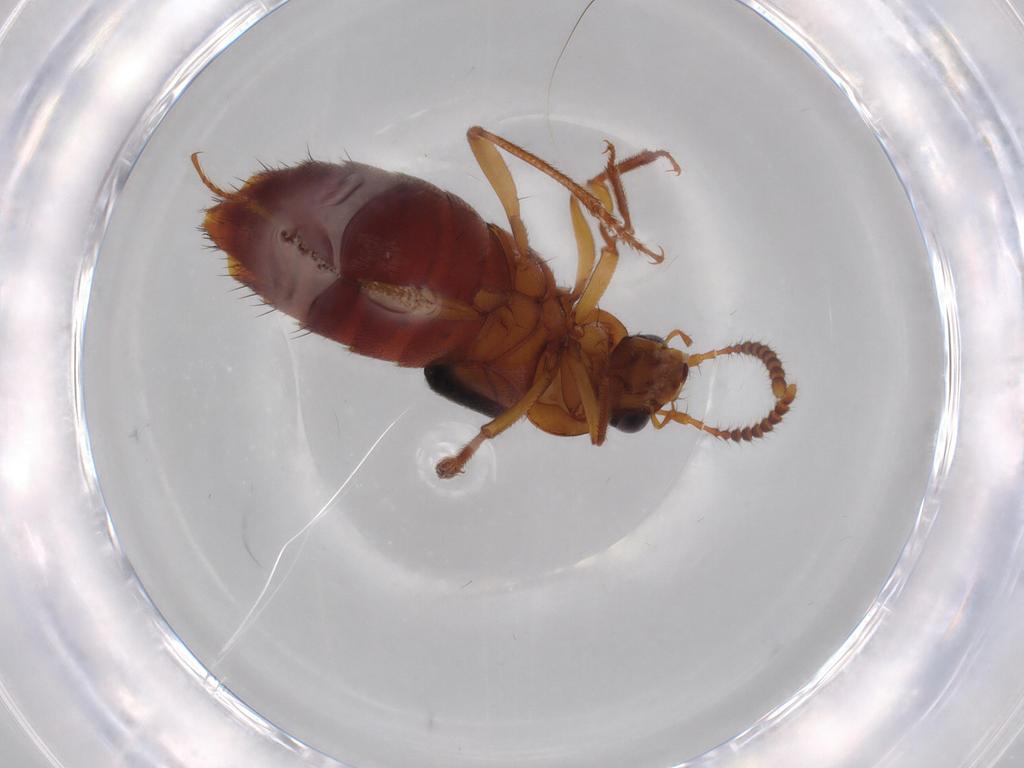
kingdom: Animalia
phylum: Arthropoda
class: Insecta
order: Coleoptera
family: Staphylinidae
